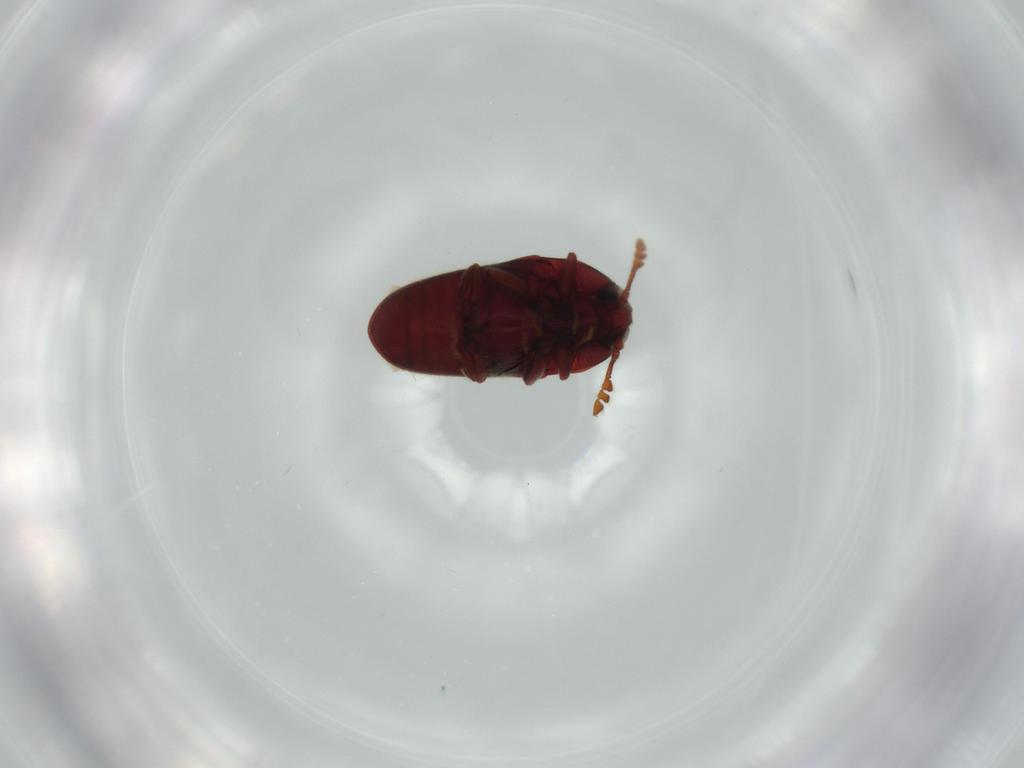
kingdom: Animalia
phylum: Arthropoda
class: Insecta
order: Coleoptera
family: Throscidae
